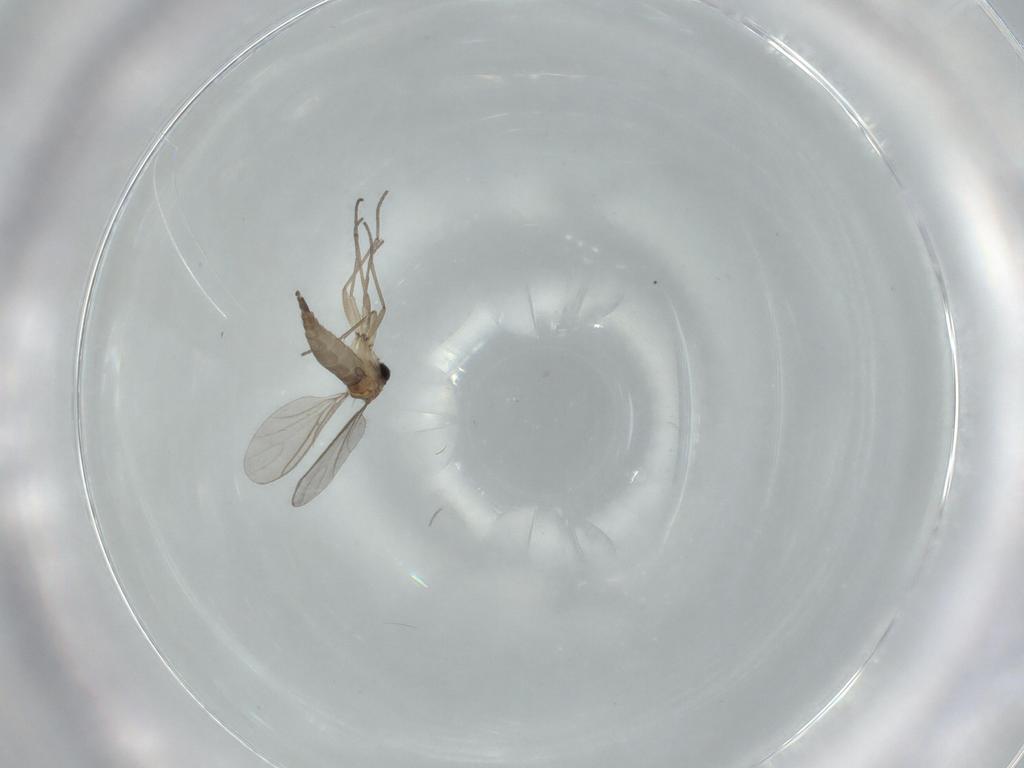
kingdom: Animalia
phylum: Arthropoda
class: Insecta
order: Diptera
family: Sciaridae
